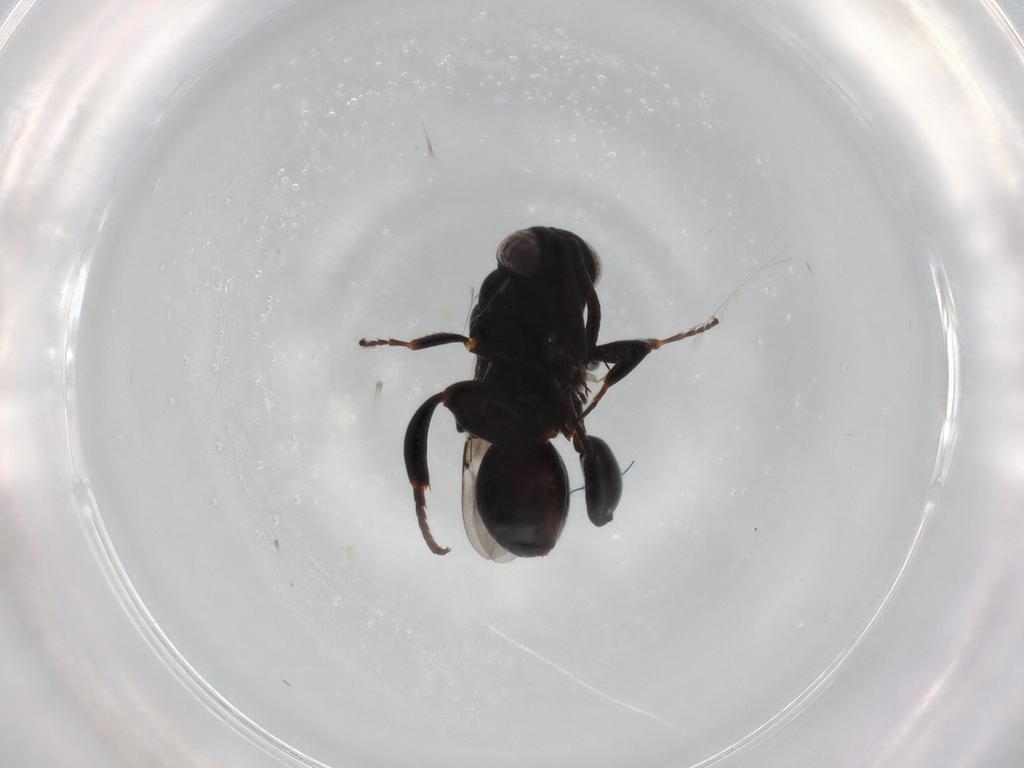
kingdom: Animalia
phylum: Arthropoda
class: Insecta
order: Hymenoptera
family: Chalcididae
